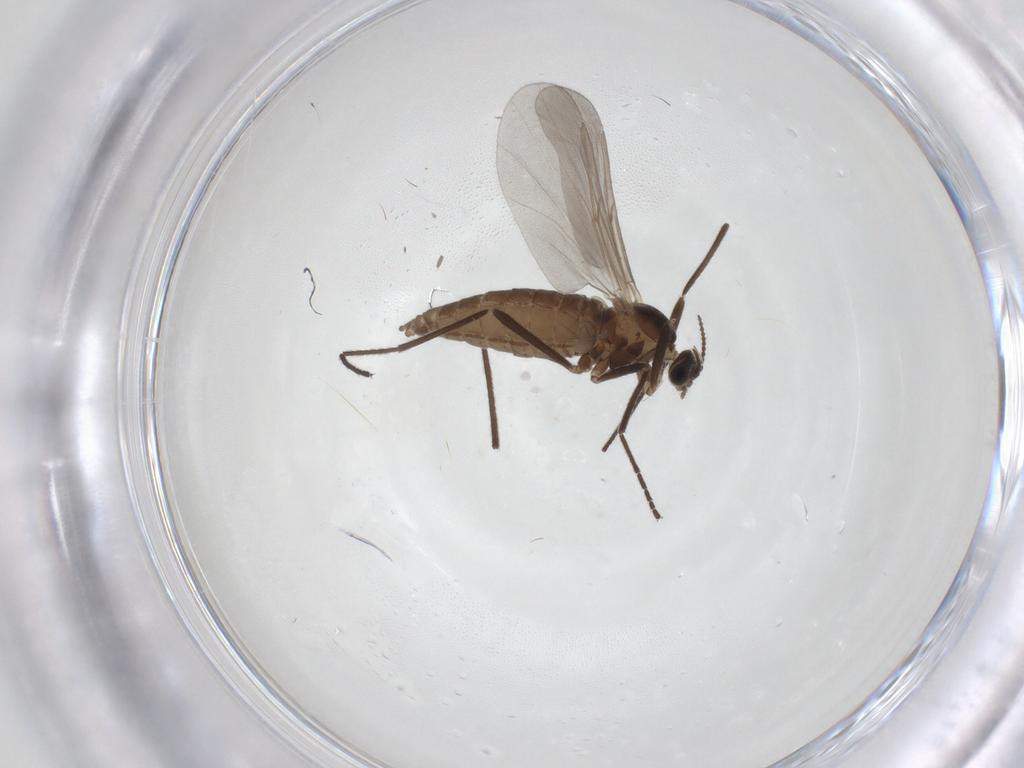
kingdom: Animalia
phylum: Arthropoda
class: Insecta
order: Diptera
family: Cecidomyiidae
